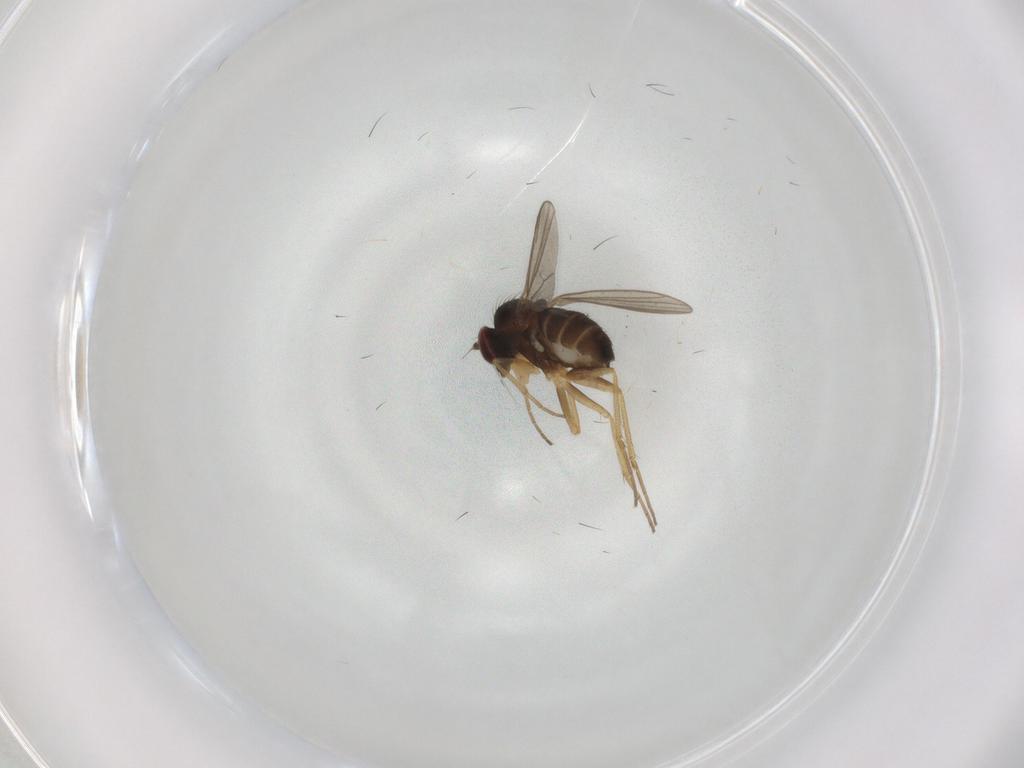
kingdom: Animalia
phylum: Arthropoda
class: Insecta
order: Diptera
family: Dolichopodidae
